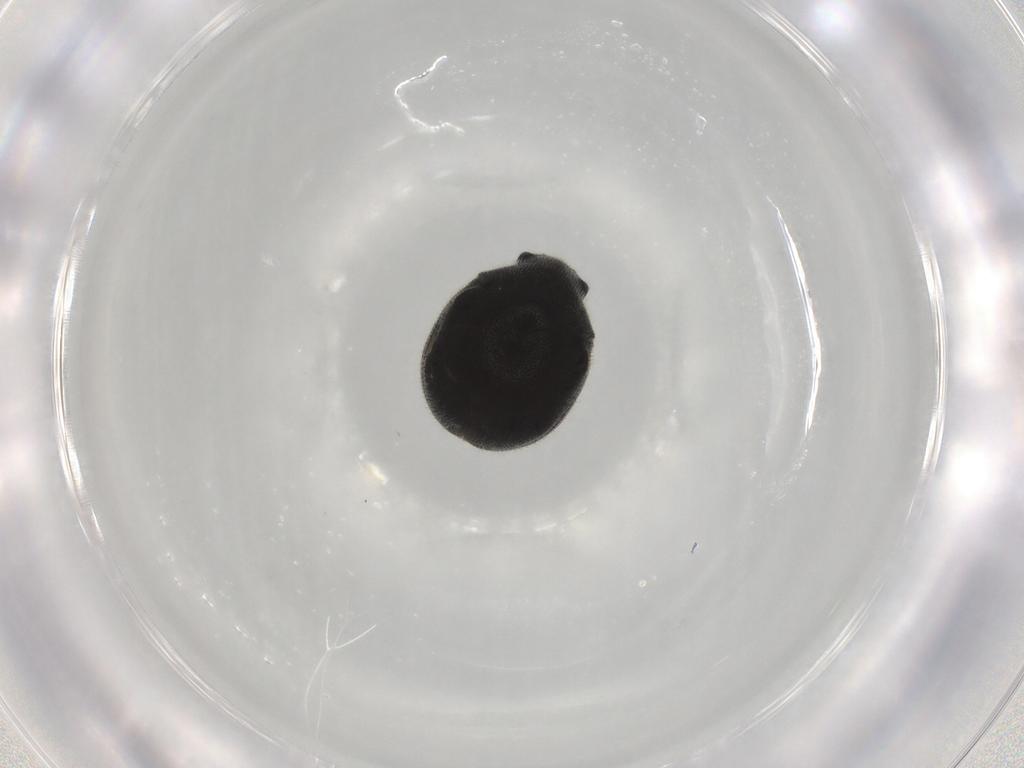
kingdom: Animalia
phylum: Arthropoda
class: Insecta
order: Coleoptera
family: Ptinidae
